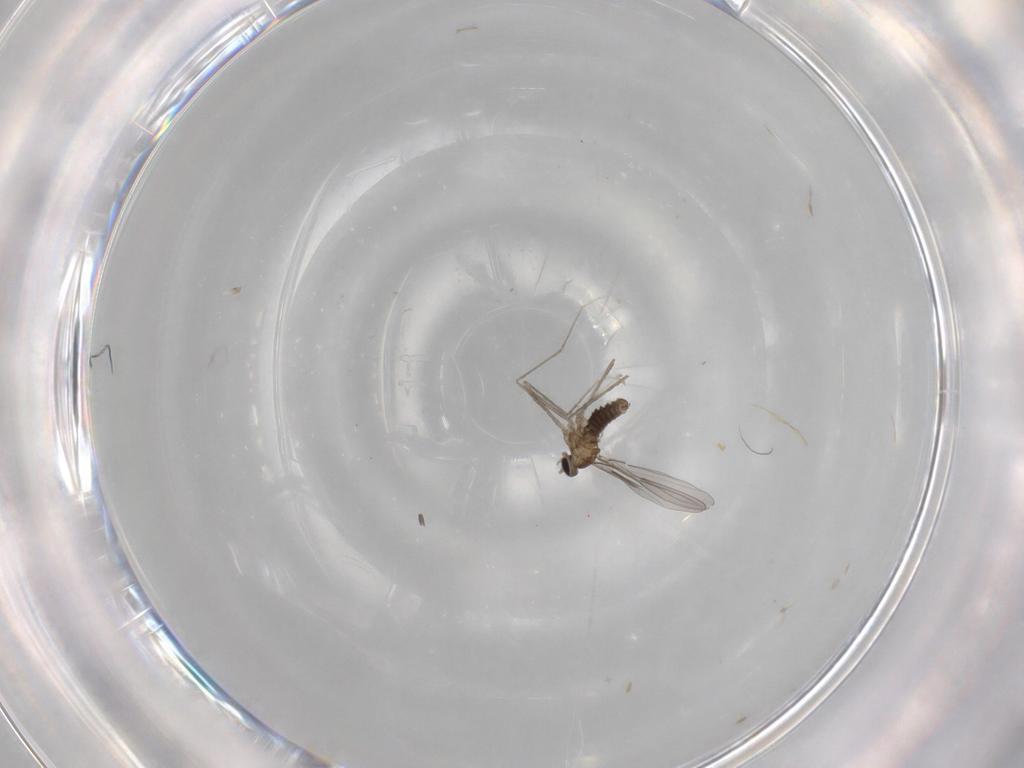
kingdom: Animalia
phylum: Arthropoda
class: Insecta
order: Diptera
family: Cecidomyiidae
